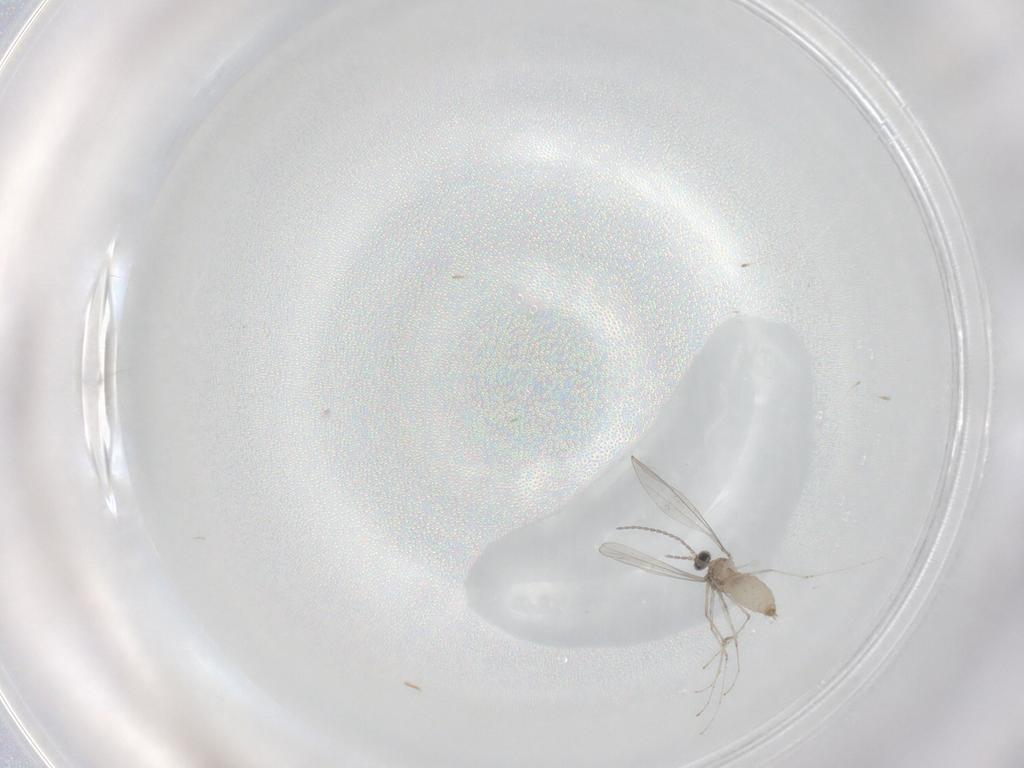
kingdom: Animalia
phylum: Arthropoda
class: Insecta
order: Diptera
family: Cecidomyiidae
